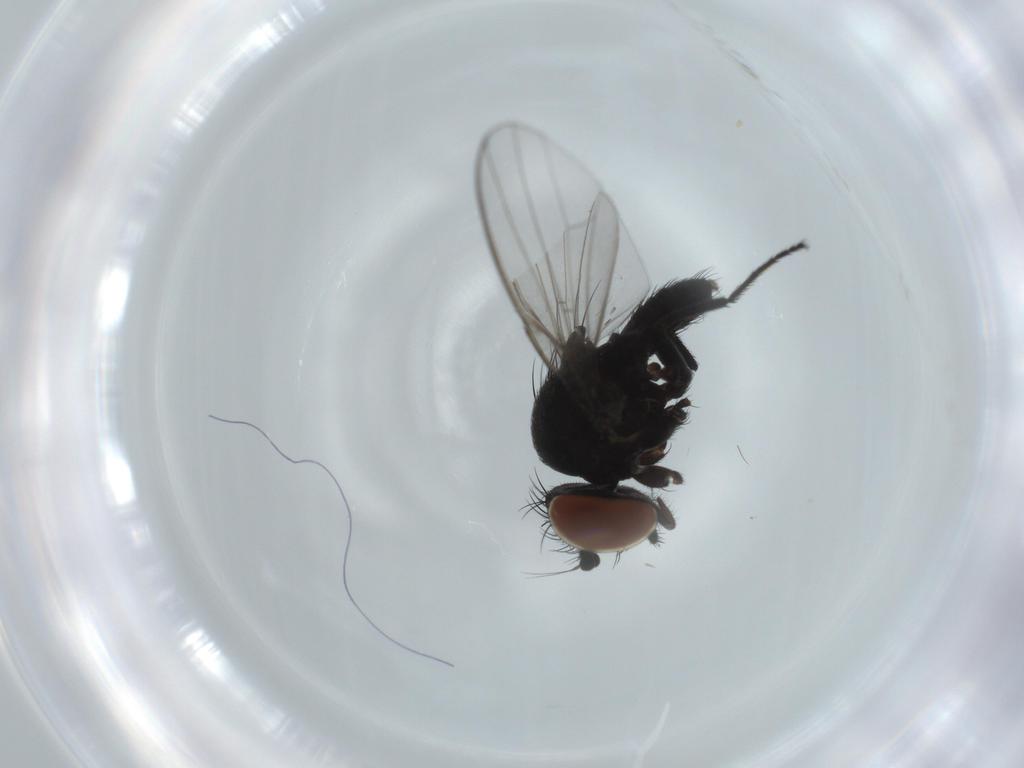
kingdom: Animalia
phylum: Arthropoda
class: Insecta
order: Diptera
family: Milichiidae
